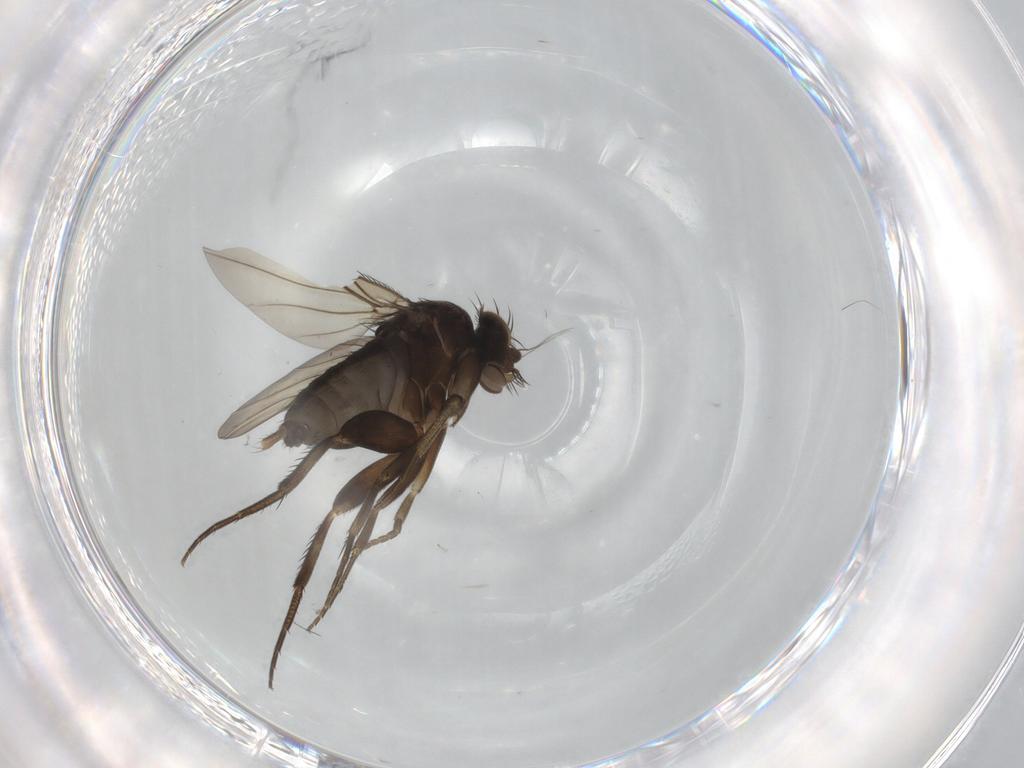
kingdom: Animalia
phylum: Arthropoda
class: Insecta
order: Diptera
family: Phoridae
